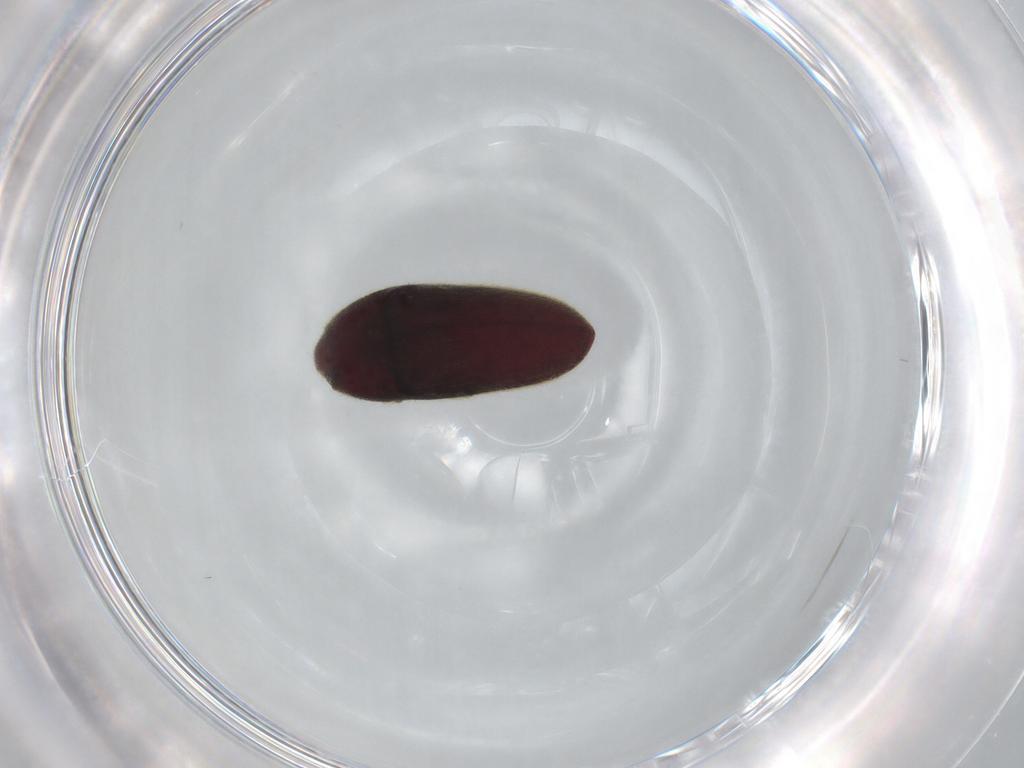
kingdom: Animalia
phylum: Arthropoda
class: Insecta
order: Coleoptera
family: Throscidae
